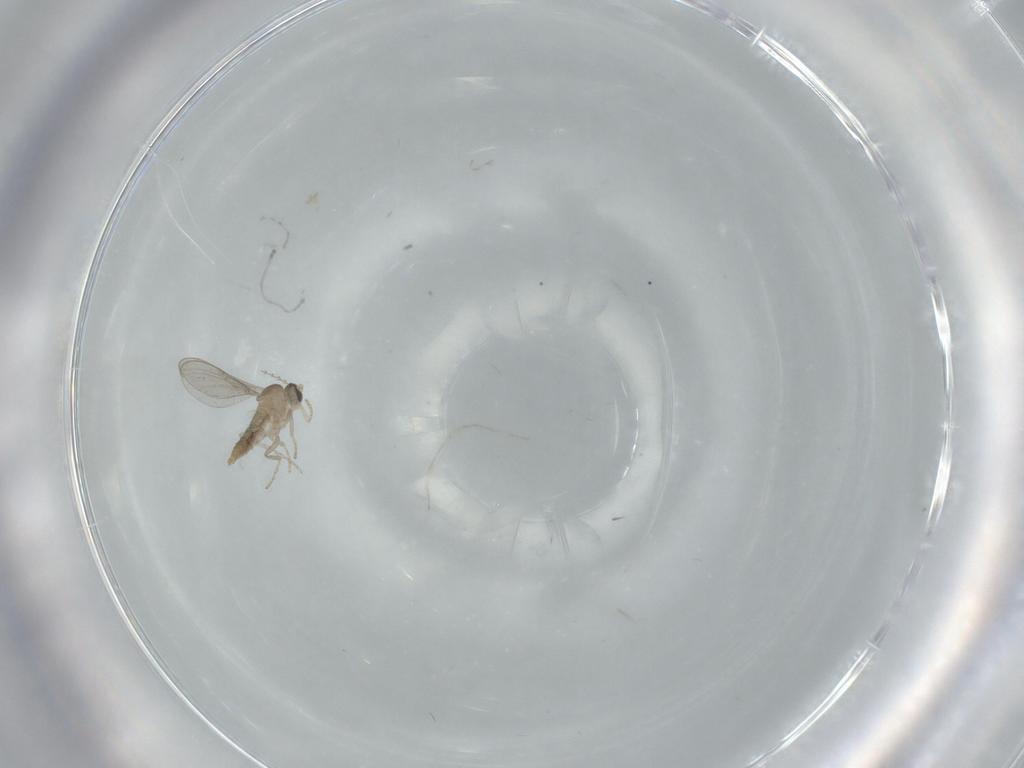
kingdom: Animalia
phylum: Arthropoda
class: Insecta
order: Diptera
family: Cecidomyiidae
